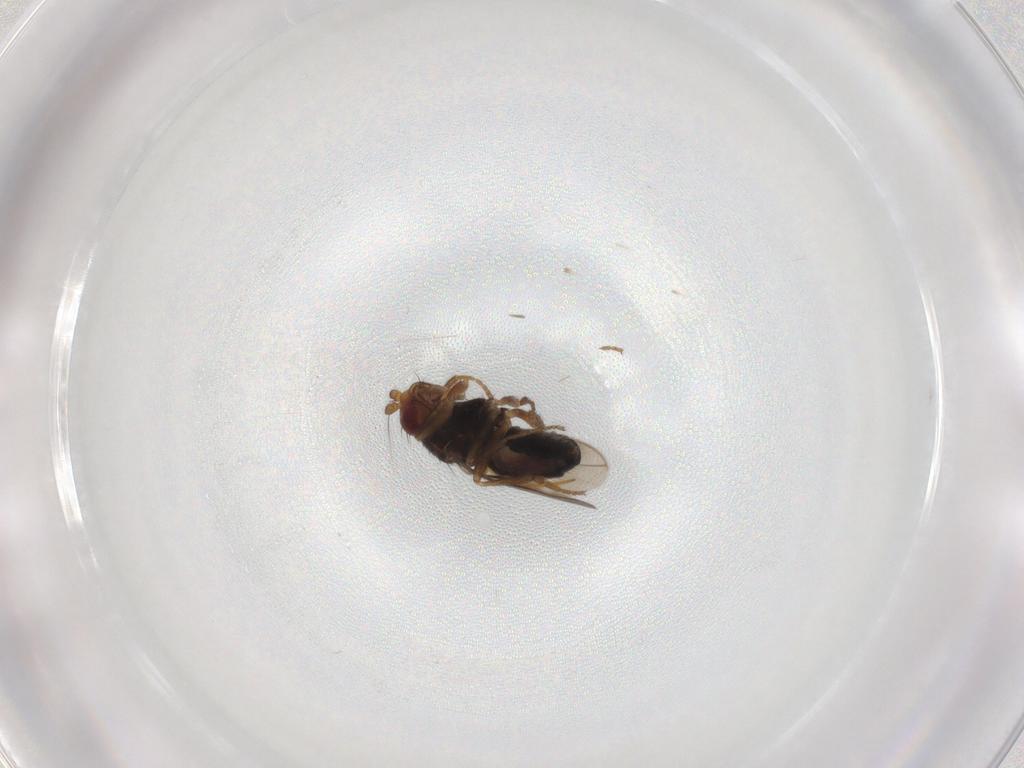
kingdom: Animalia
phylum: Arthropoda
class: Insecta
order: Diptera
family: Sphaeroceridae
